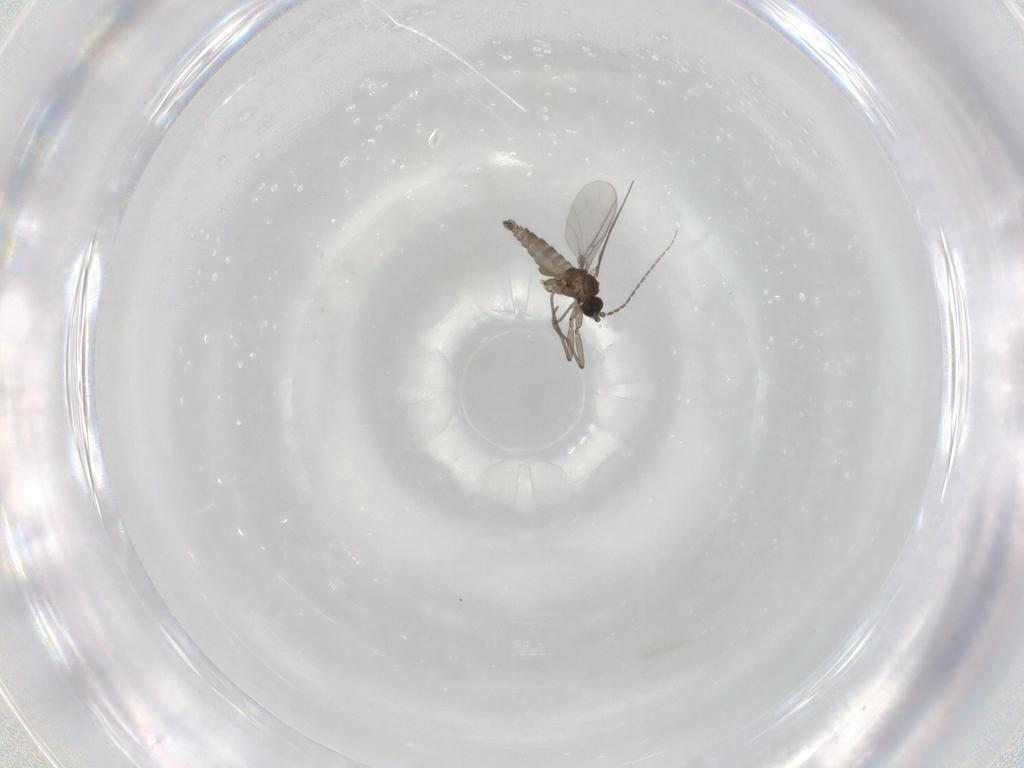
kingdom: Animalia
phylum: Arthropoda
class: Insecta
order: Diptera
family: Sciaridae
